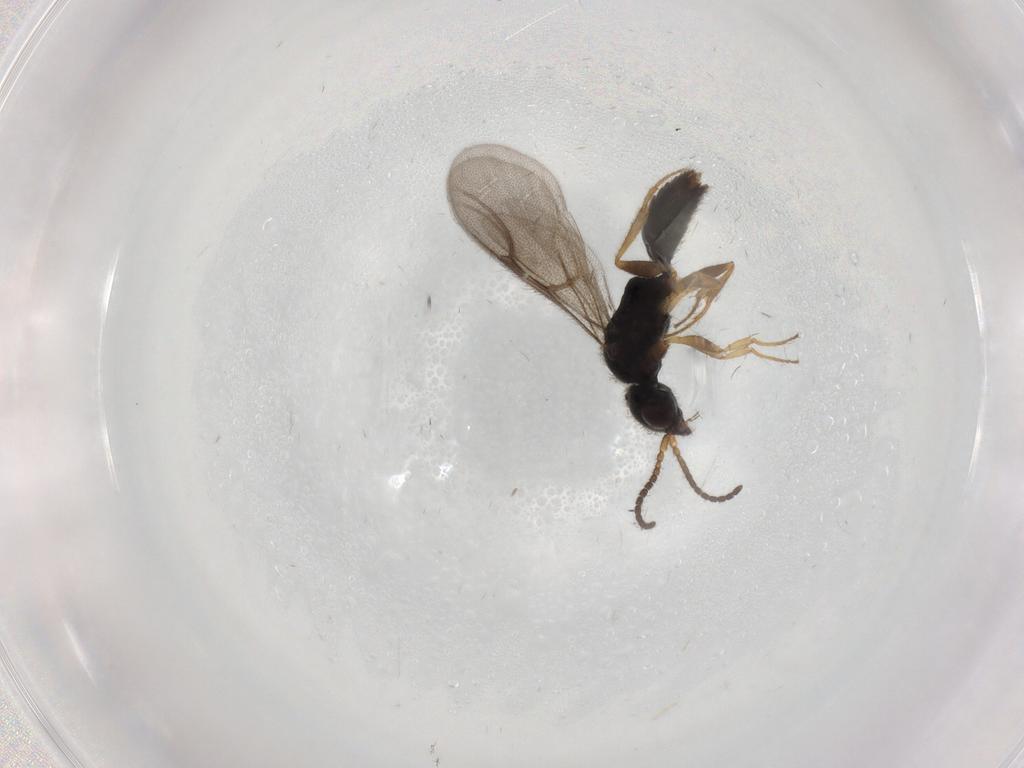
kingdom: Animalia
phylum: Arthropoda
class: Insecta
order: Hymenoptera
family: Bethylidae
